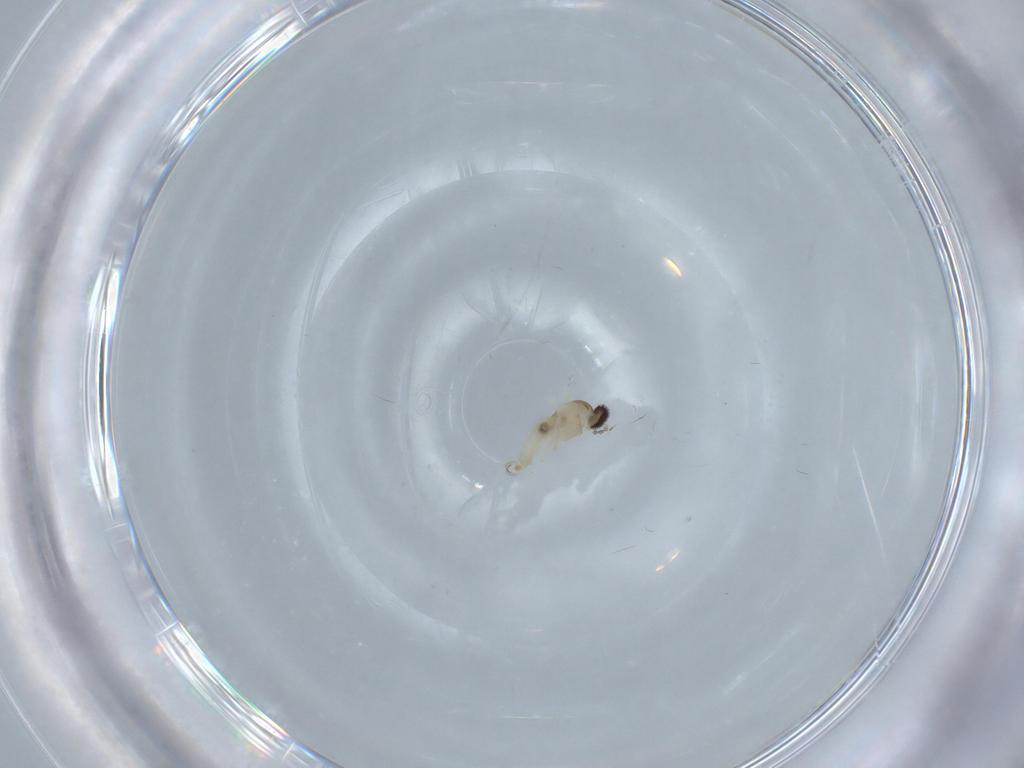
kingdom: Animalia
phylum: Arthropoda
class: Insecta
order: Diptera
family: Cecidomyiidae
